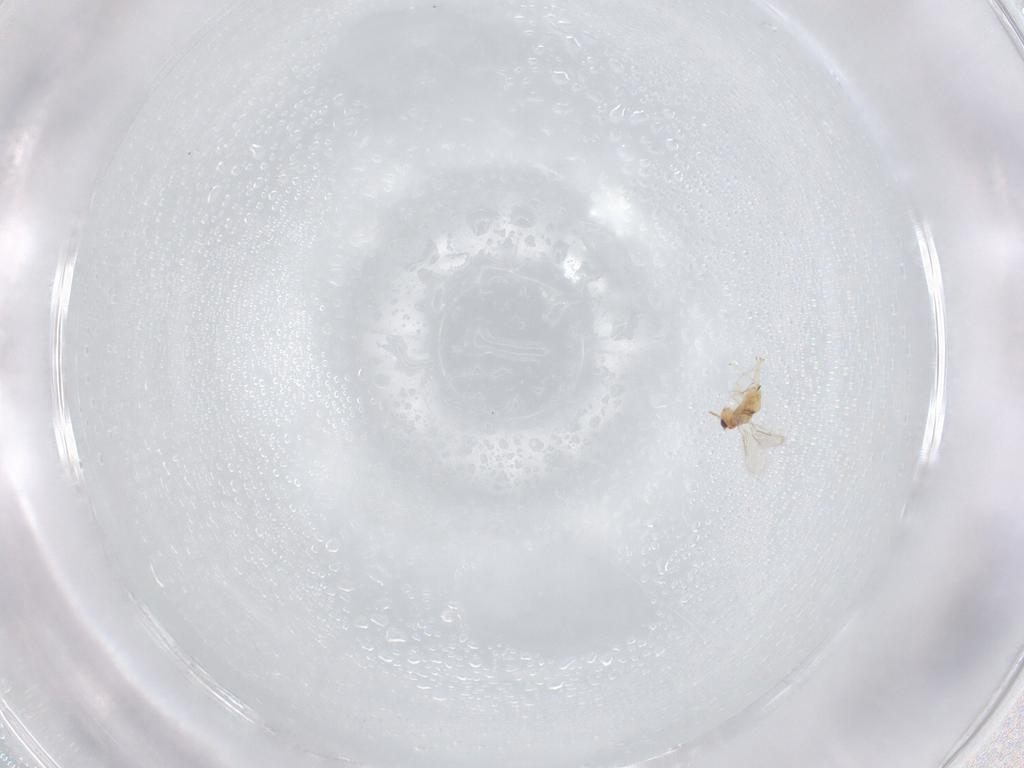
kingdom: Animalia
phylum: Arthropoda
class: Insecta
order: Hymenoptera
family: Aphelinidae
